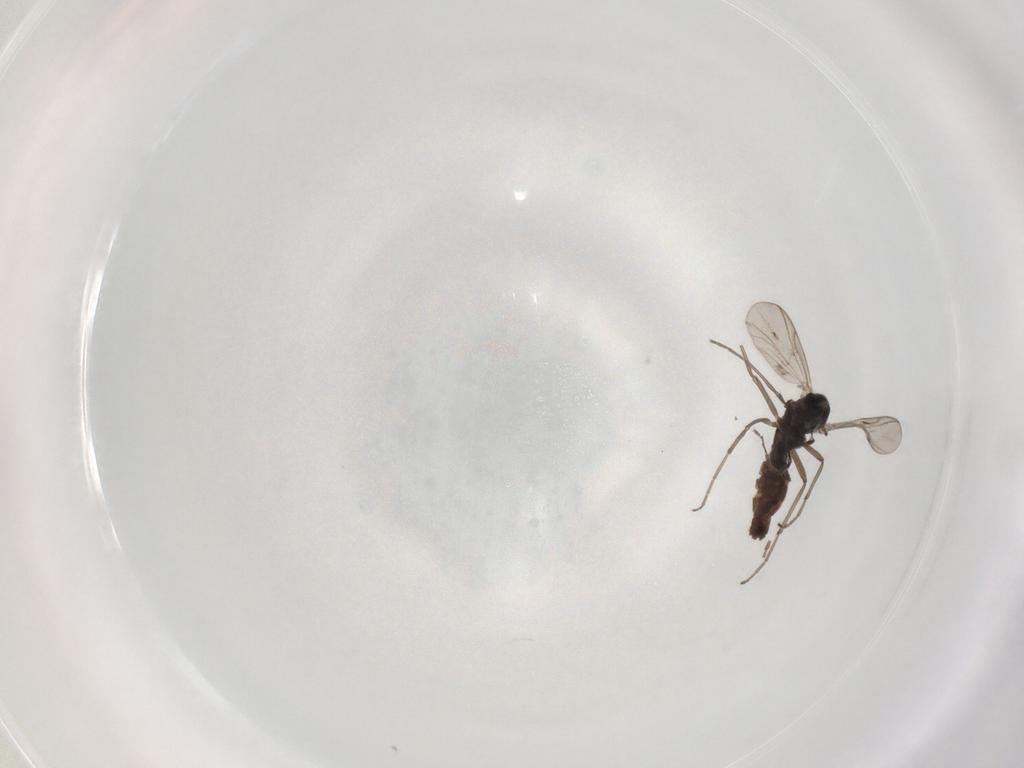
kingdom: Animalia
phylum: Arthropoda
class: Insecta
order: Diptera
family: Chironomidae
